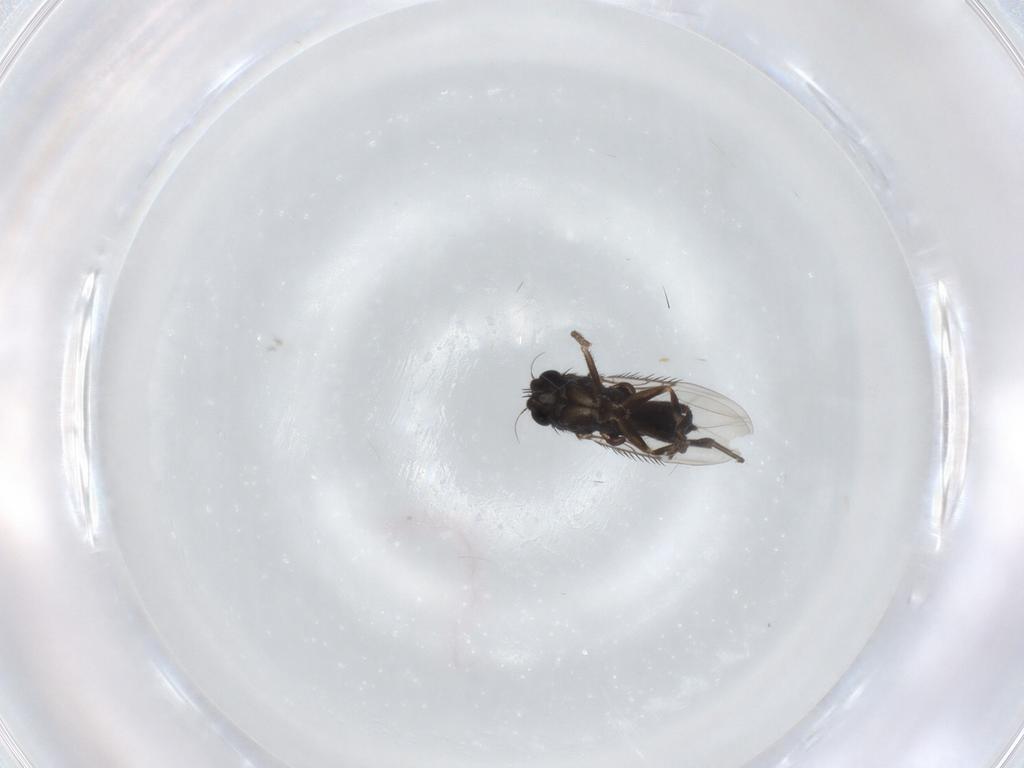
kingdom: Animalia
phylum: Arthropoda
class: Insecta
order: Diptera
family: Phoridae
